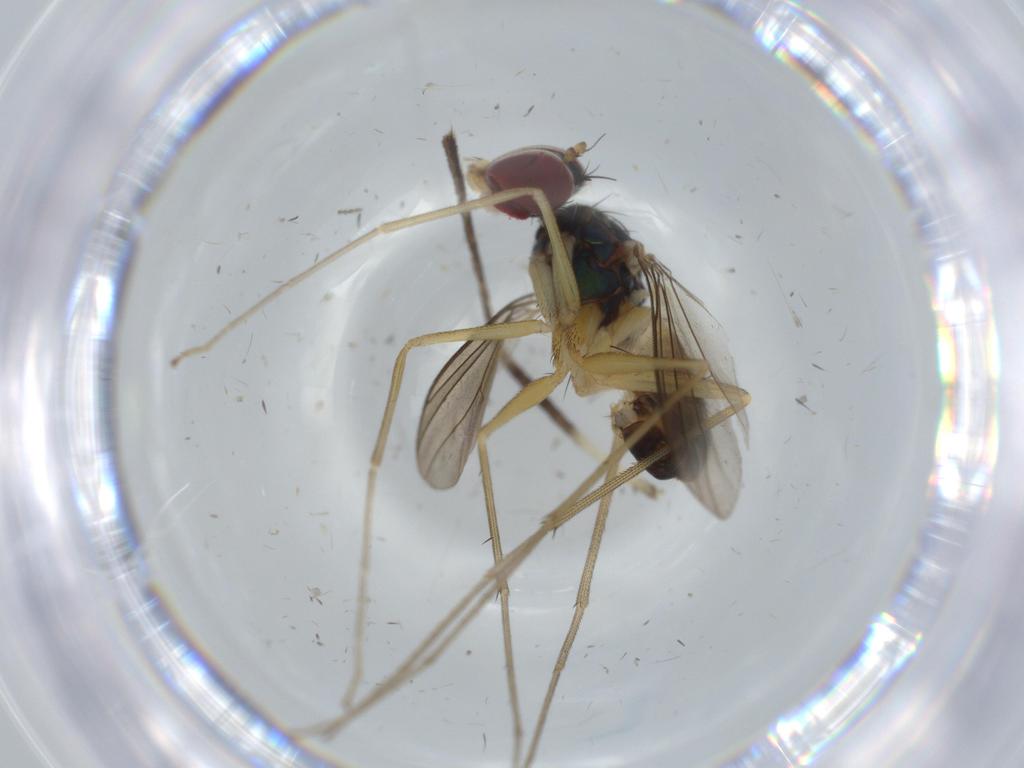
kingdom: Animalia
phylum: Arthropoda
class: Insecta
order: Diptera
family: Dolichopodidae
